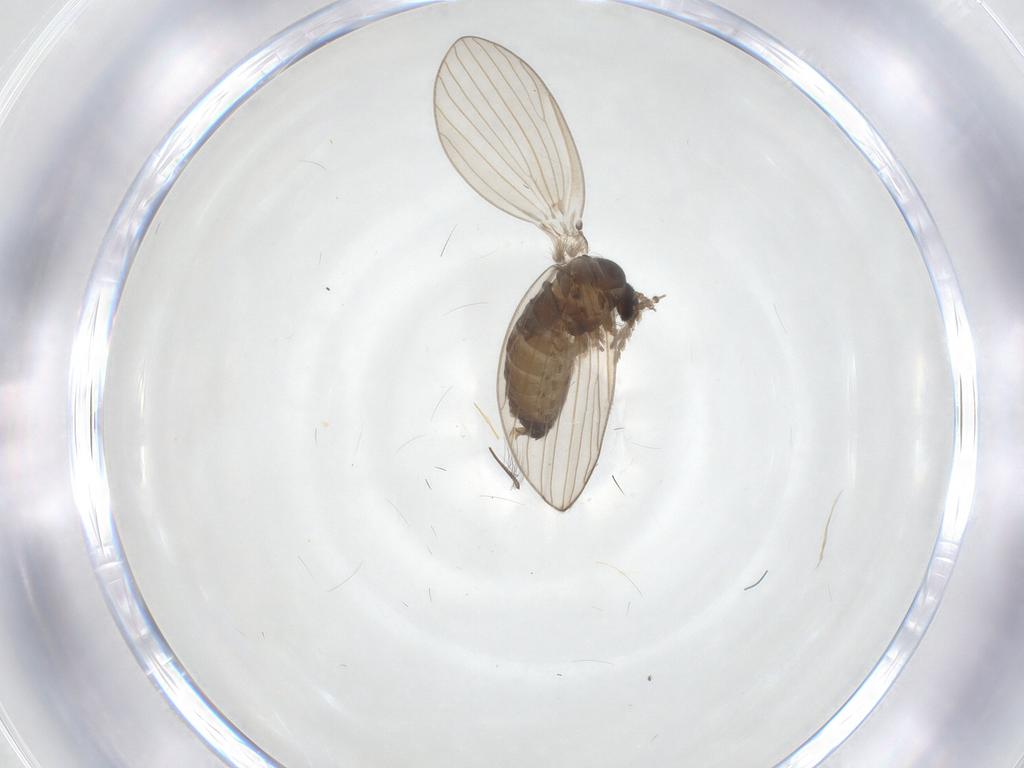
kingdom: Animalia
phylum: Arthropoda
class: Insecta
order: Diptera
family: Psychodidae
